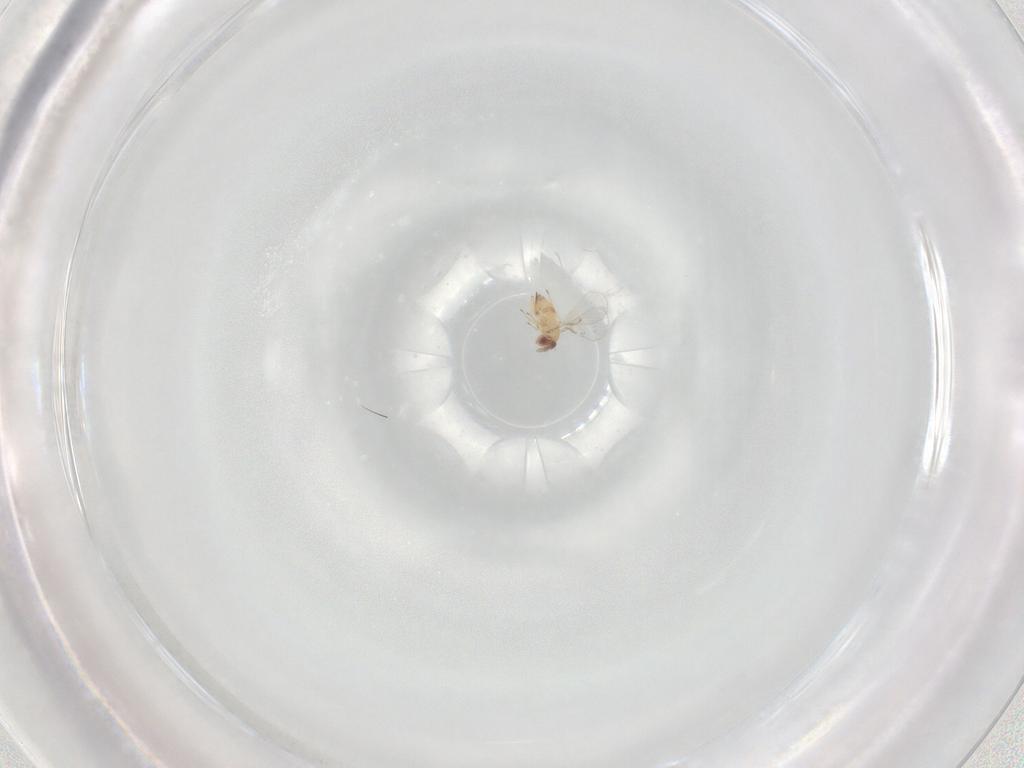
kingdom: Animalia
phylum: Arthropoda
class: Insecta
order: Hymenoptera
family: Trichogrammatidae
